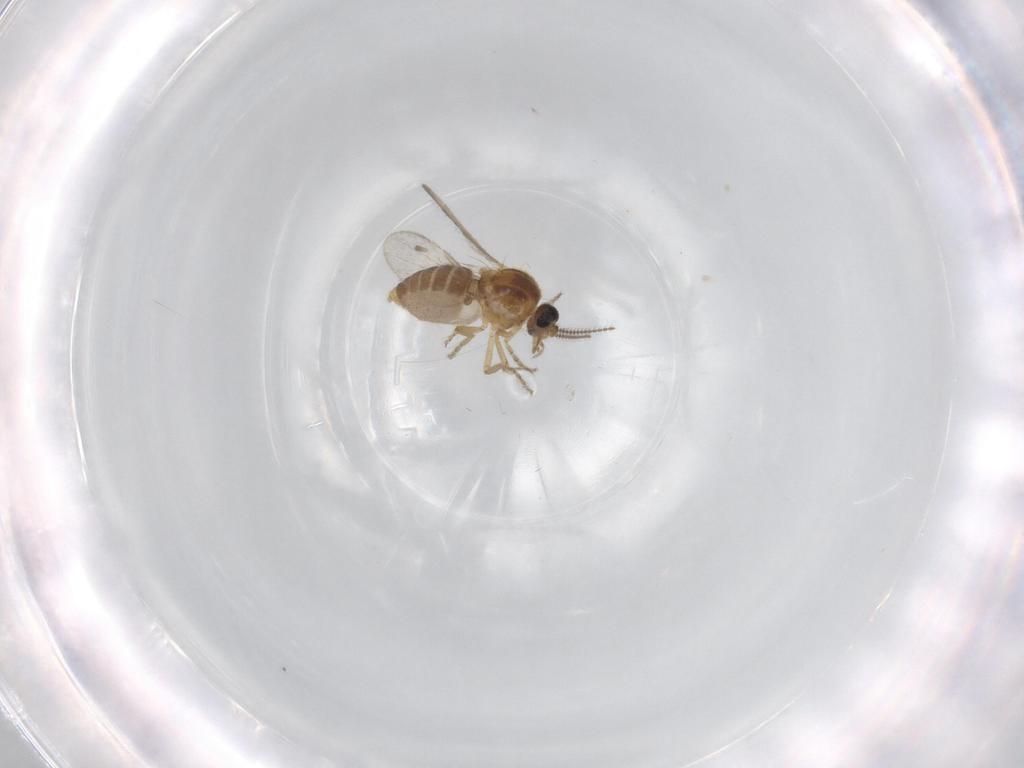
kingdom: Animalia
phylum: Arthropoda
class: Insecta
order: Diptera
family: Ceratopogonidae
